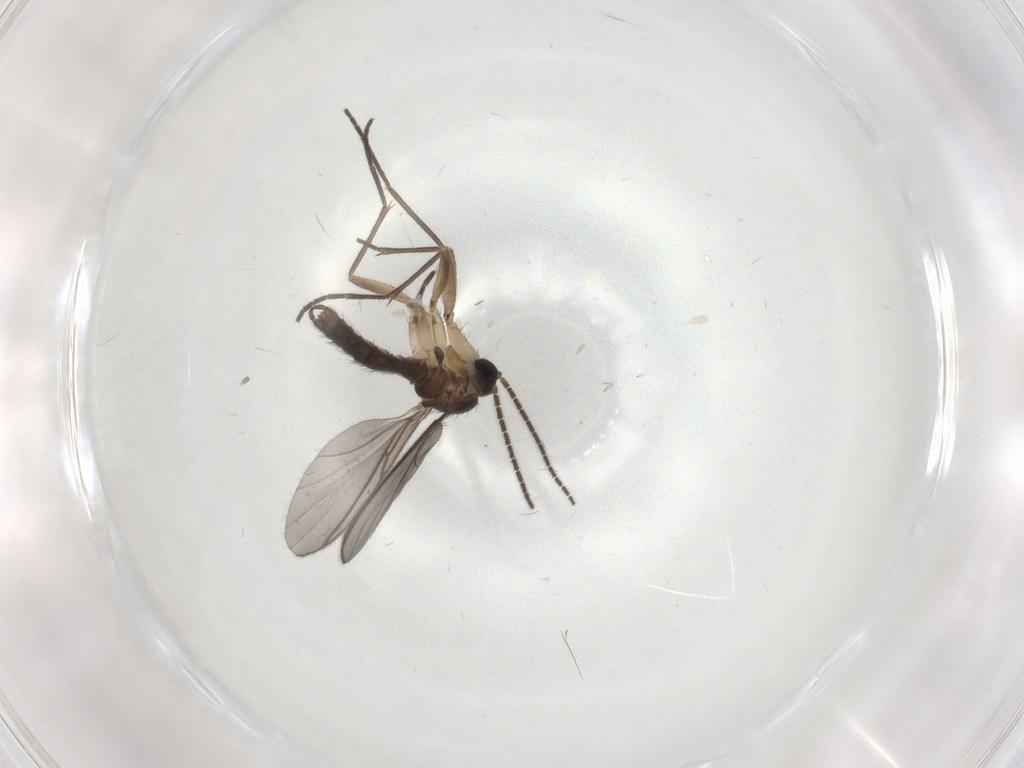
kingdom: Animalia
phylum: Arthropoda
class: Insecta
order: Diptera
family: Sciaridae
